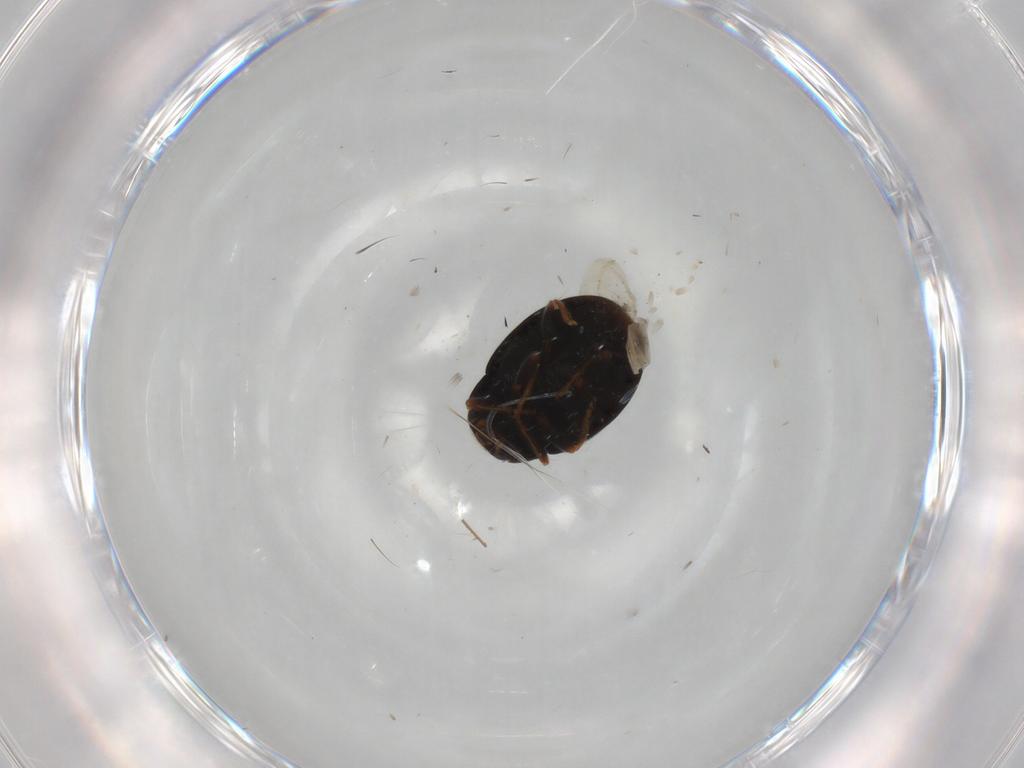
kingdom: Animalia
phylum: Arthropoda
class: Insecta
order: Coleoptera
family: Coccinellidae
